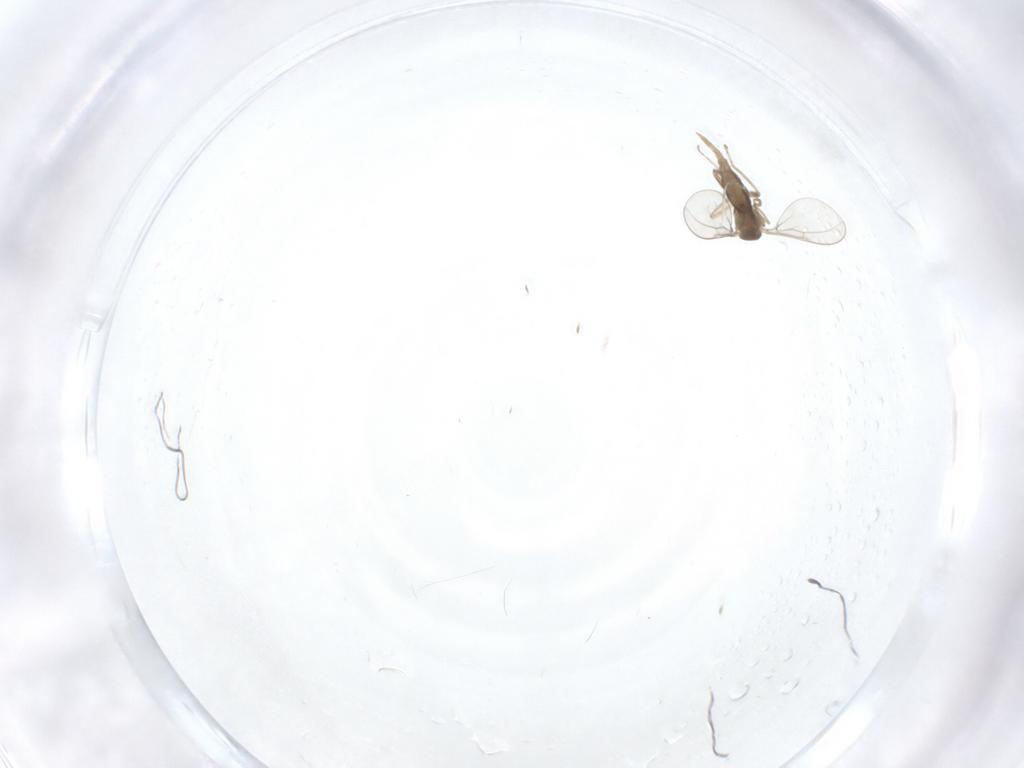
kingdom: Animalia
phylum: Arthropoda
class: Insecta
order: Diptera
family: Cecidomyiidae
